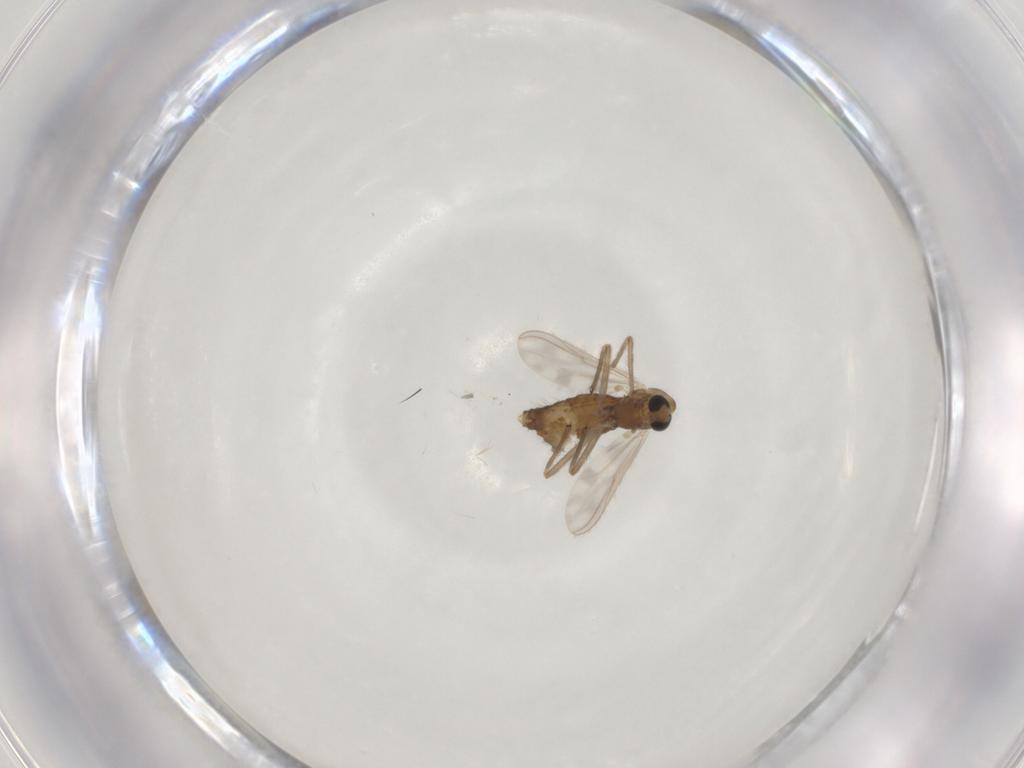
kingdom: Animalia
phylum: Arthropoda
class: Insecta
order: Diptera
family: Chironomidae
